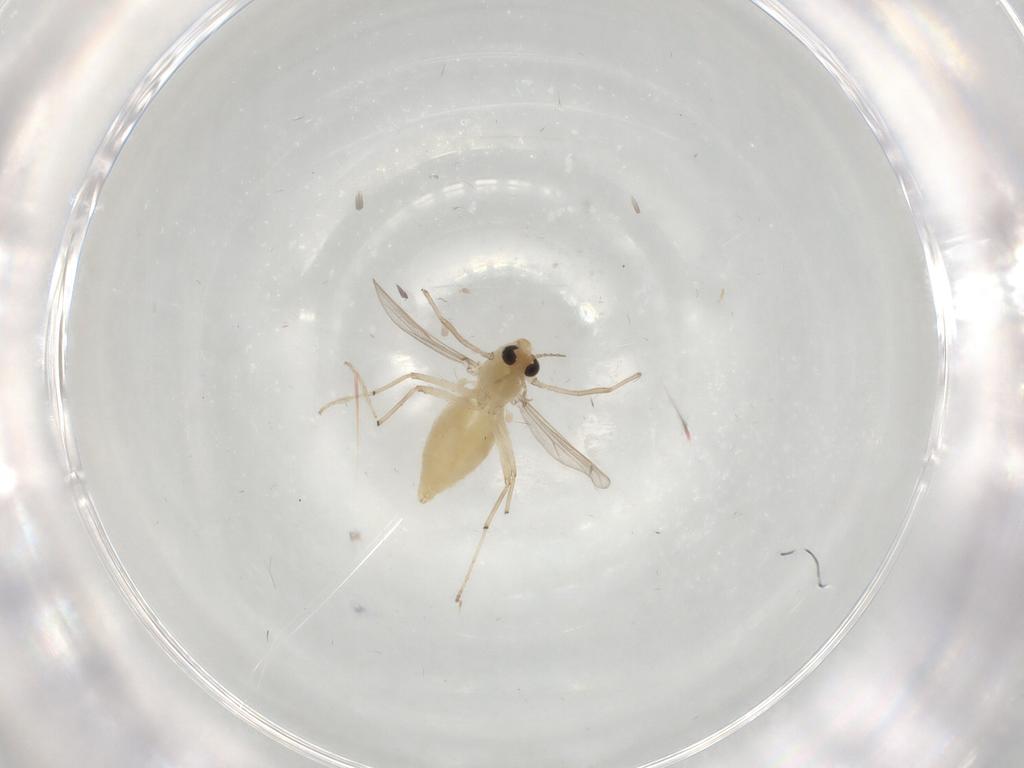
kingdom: Animalia
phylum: Arthropoda
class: Insecta
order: Diptera
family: Chironomidae
